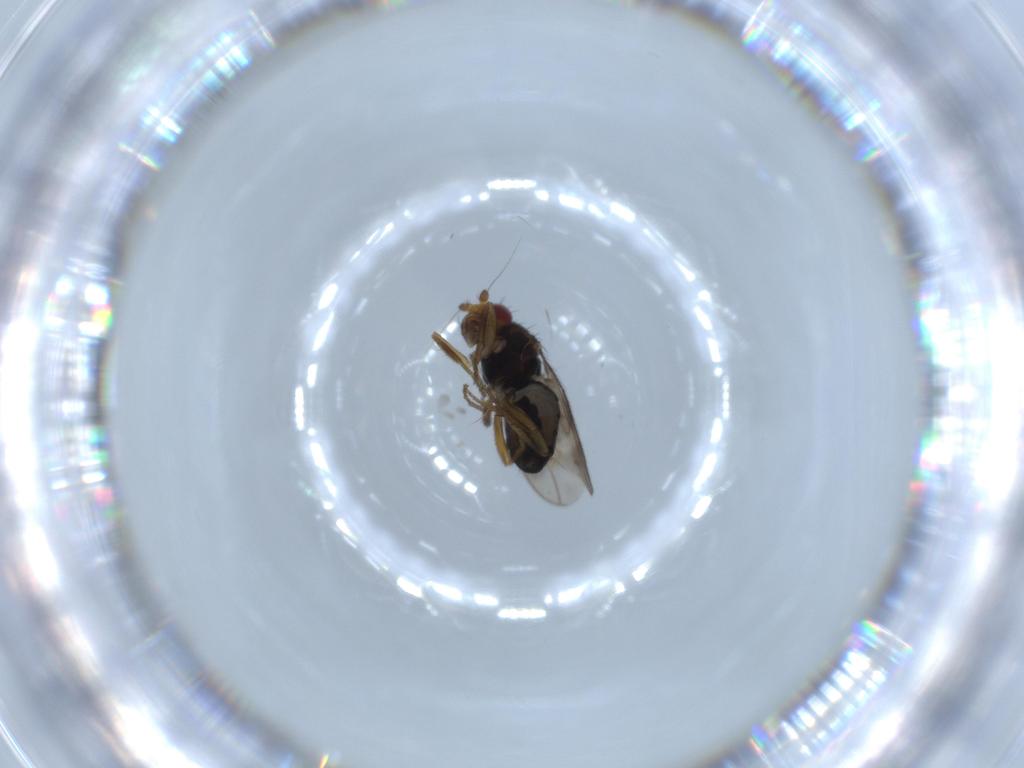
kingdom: Animalia
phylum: Arthropoda
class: Insecta
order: Diptera
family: Sphaeroceridae
